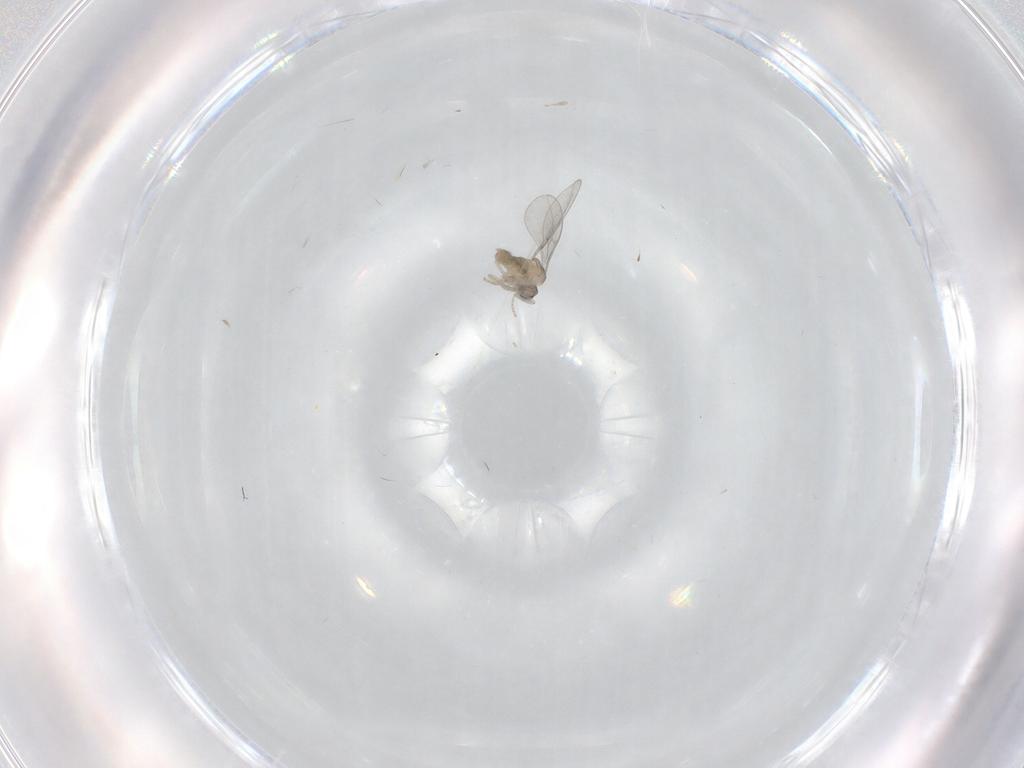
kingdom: Animalia
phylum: Arthropoda
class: Insecta
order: Diptera
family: Cecidomyiidae
